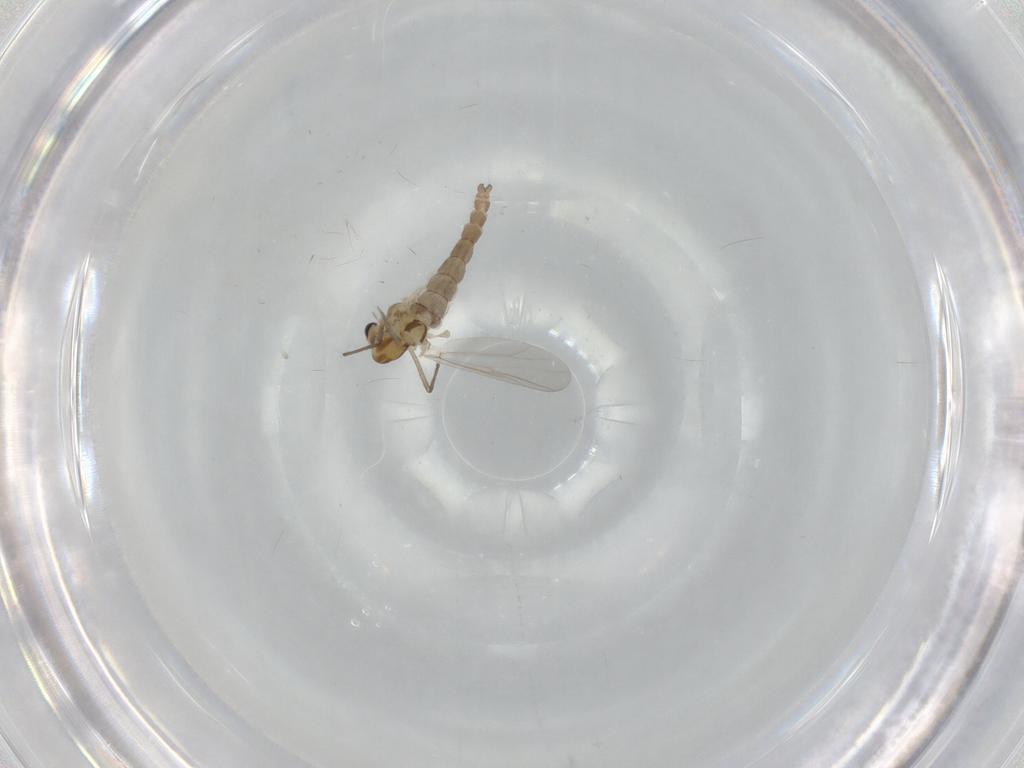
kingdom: Animalia
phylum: Arthropoda
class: Insecta
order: Diptera
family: Chironomidae
